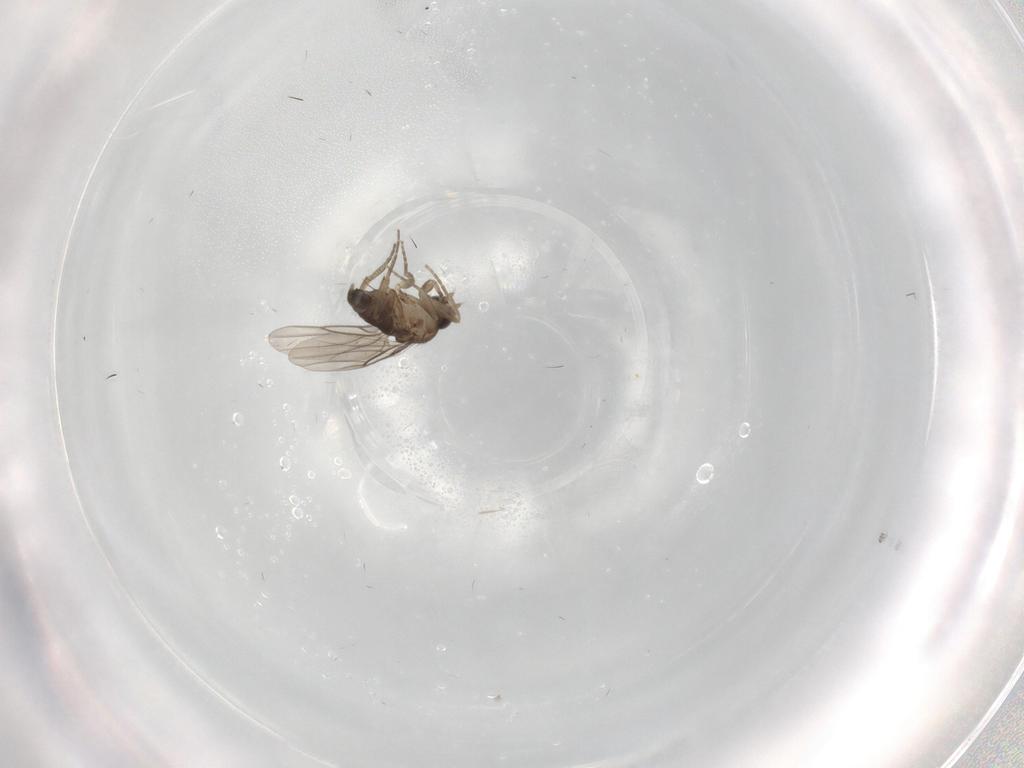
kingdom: Animalia
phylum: Arthropoda
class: Insecta
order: Diptera
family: Phoridae
